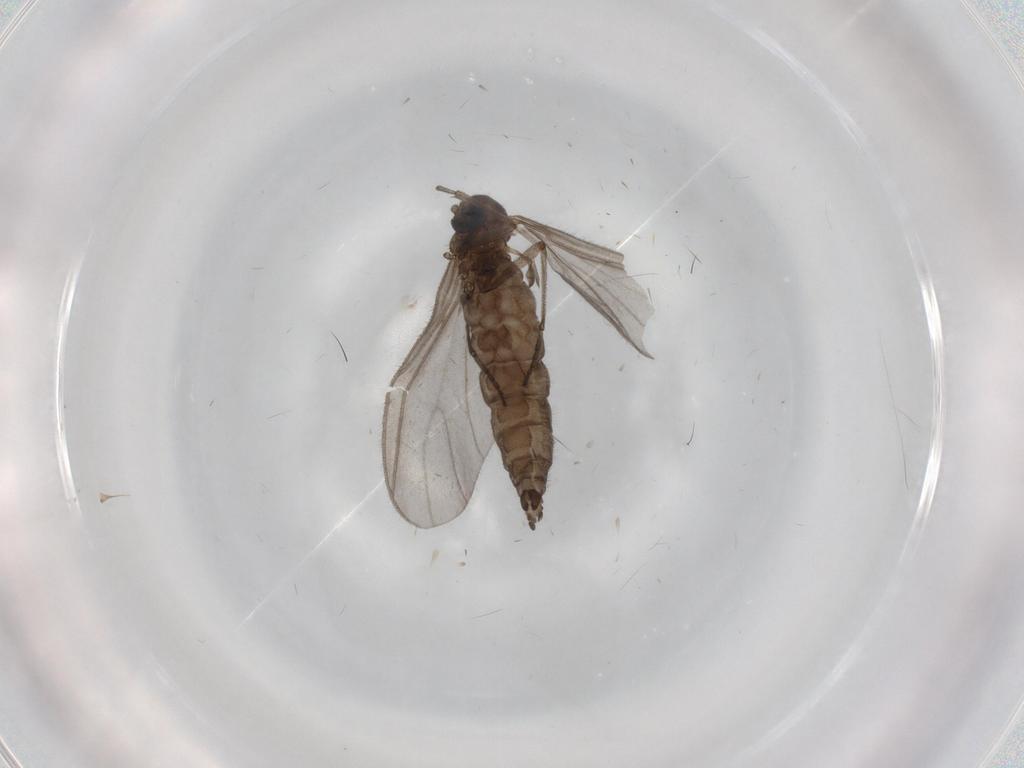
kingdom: Animalia
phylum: Arthropoda
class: Insecta
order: Diptera
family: Sciaridae
